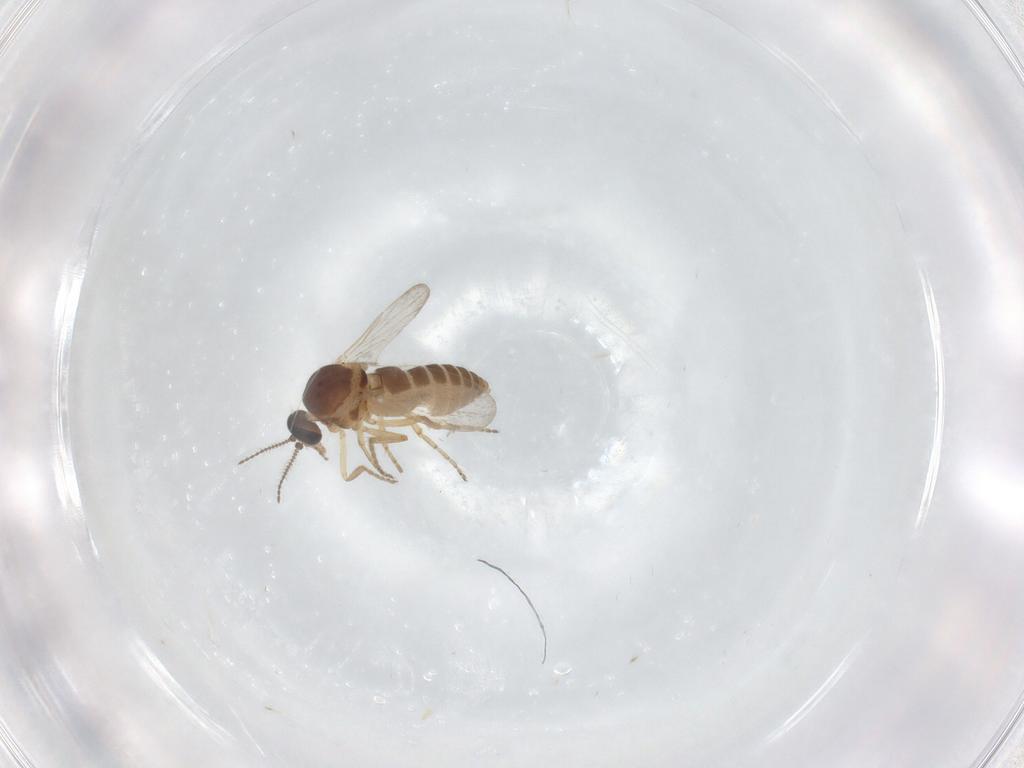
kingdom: Animalia
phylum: Arthropoda
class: Insecta
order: Diptera
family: Ceratopogonidae
